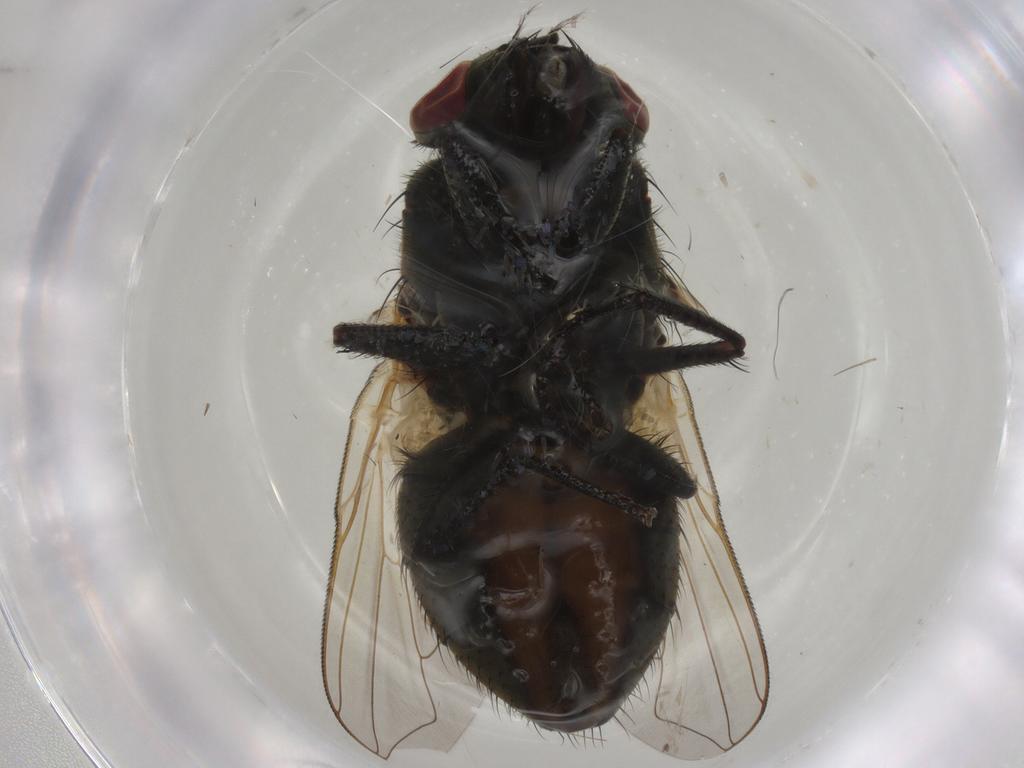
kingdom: Animalia
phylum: Arthropoda
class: Insecta
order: Diptera
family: Muscidae
